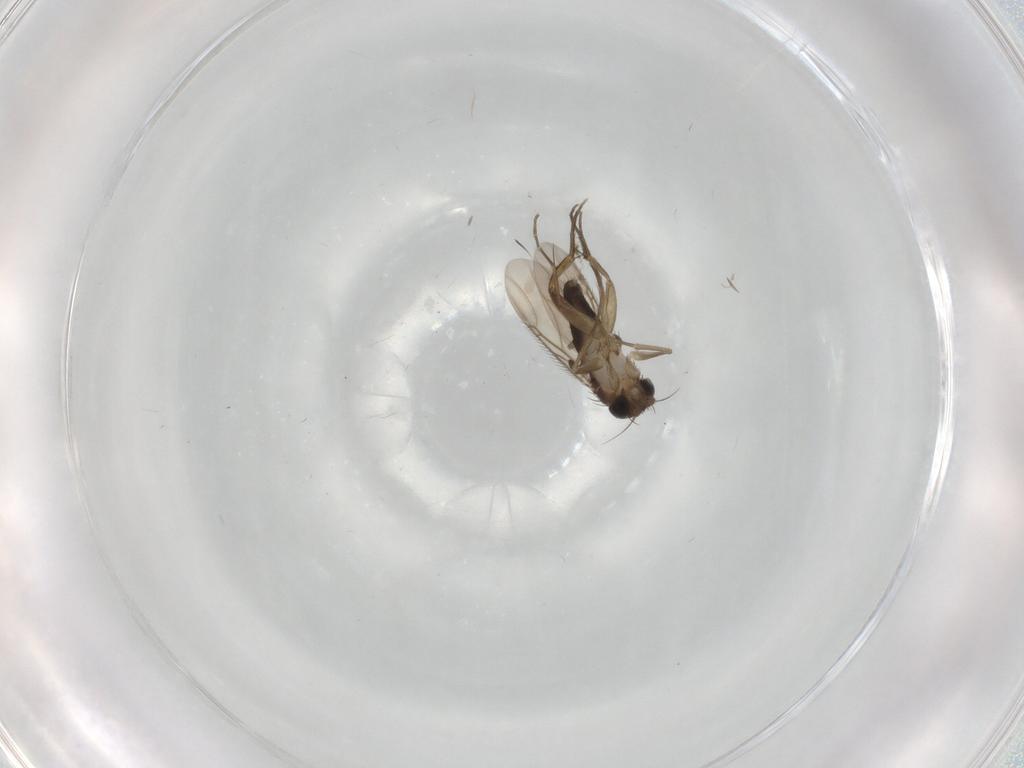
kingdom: Animalia
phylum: Arthropoda
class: Insecta
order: Diptera
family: Phoridae
